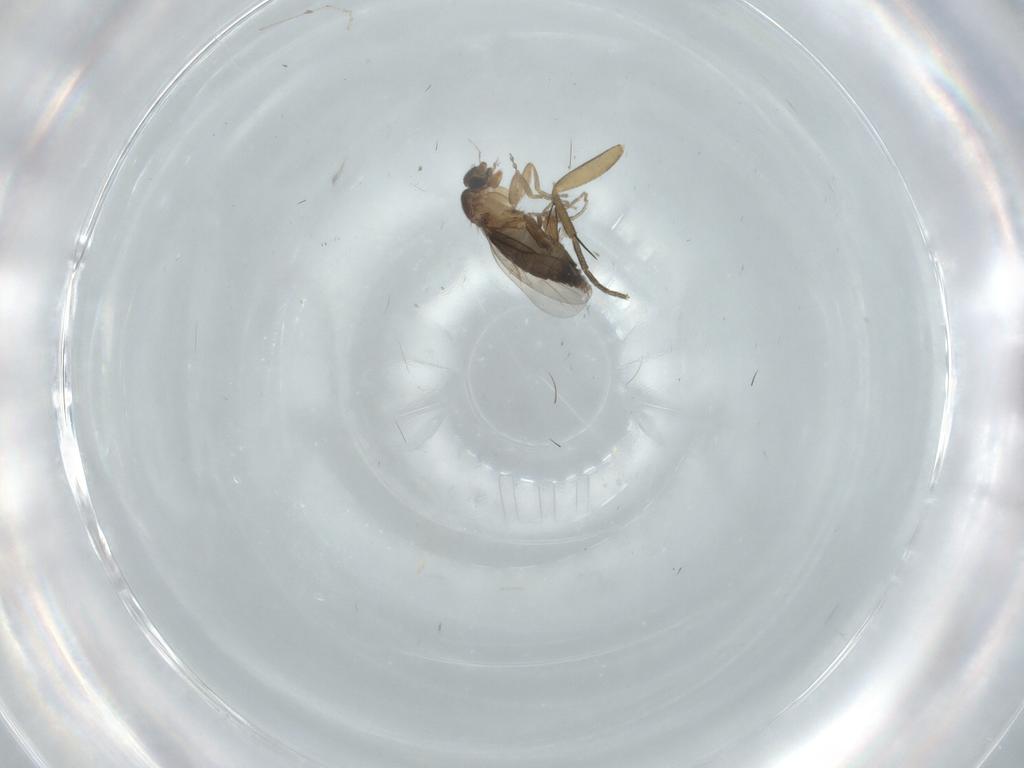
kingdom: Animalia
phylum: Arthropoda
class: Insecta
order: Diptera
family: Phoridae
